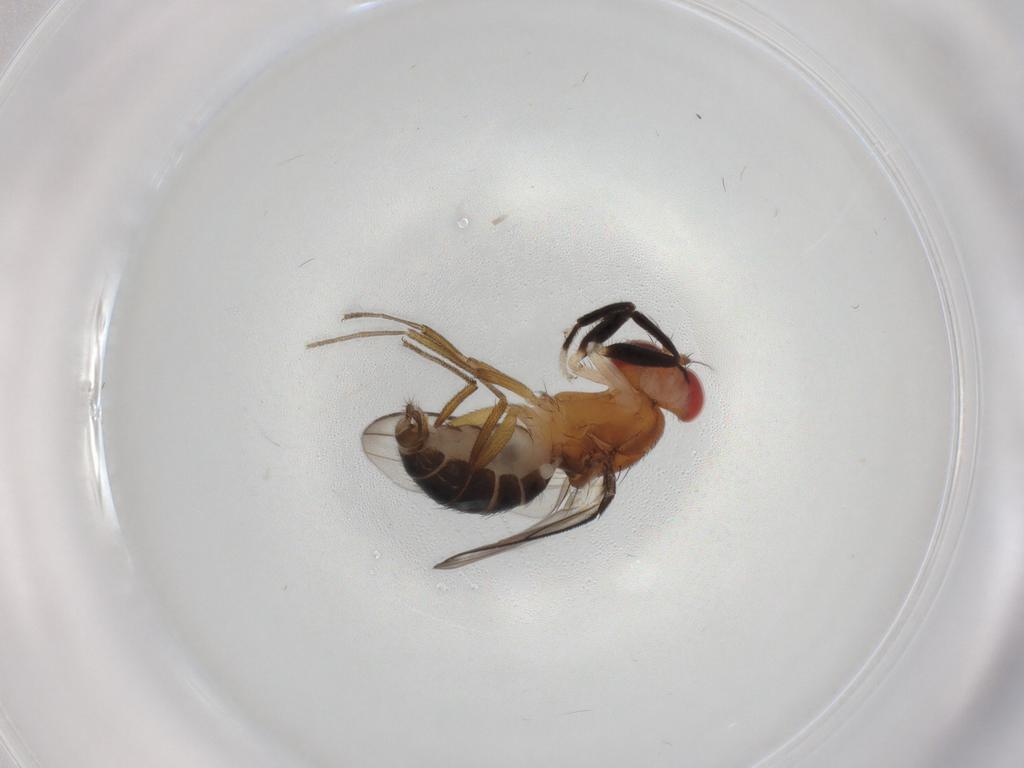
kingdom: Animalia
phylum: Arthropoda
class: Insecta
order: Diptera
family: Drosophilidae
